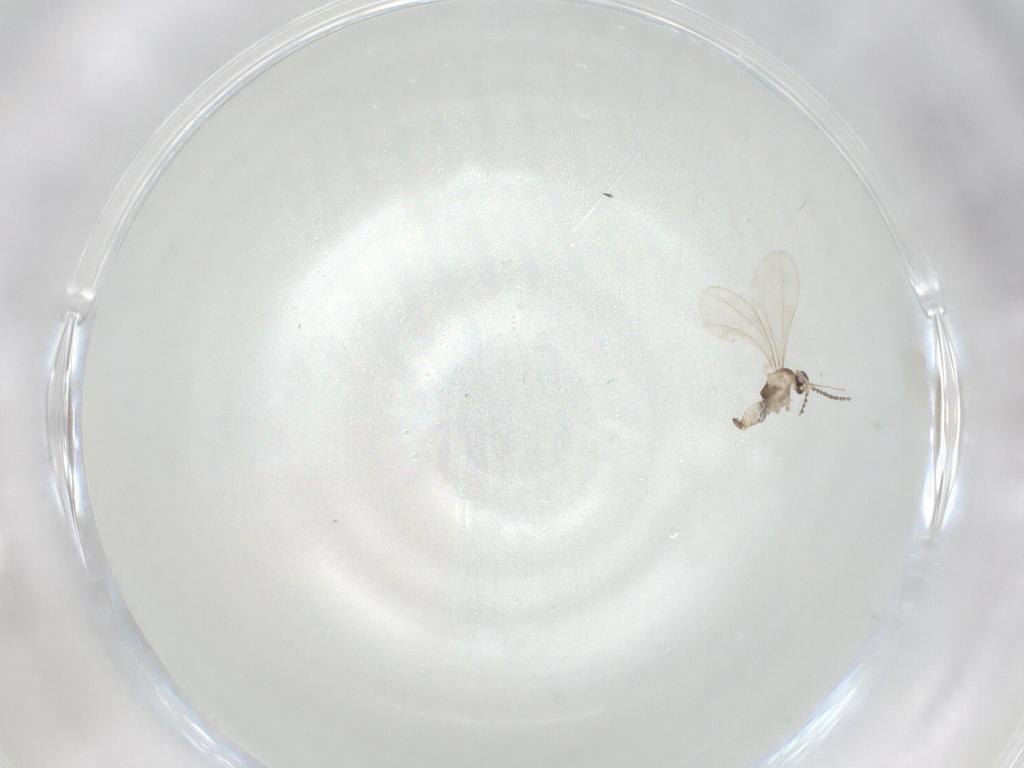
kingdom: Animalia
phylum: Arthropoda
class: Insecta
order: Diptera
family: Cecidomyiidae
